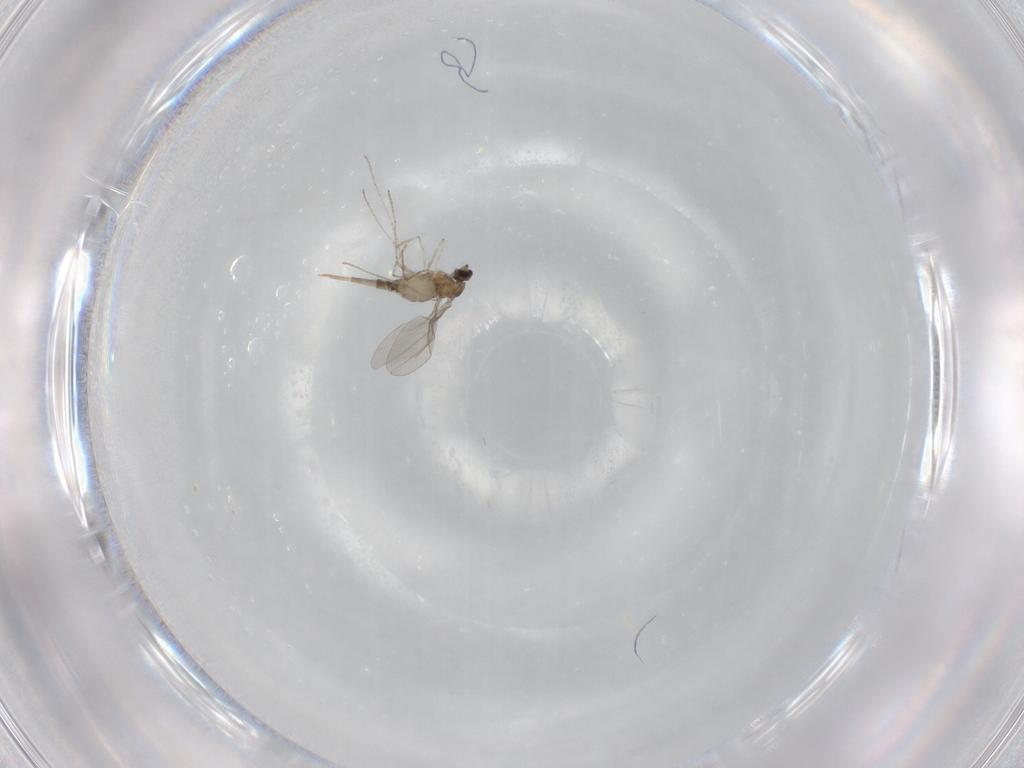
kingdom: Animalia
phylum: Arthropoda
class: Insecta
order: Diptera
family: Cecidomyiidae
